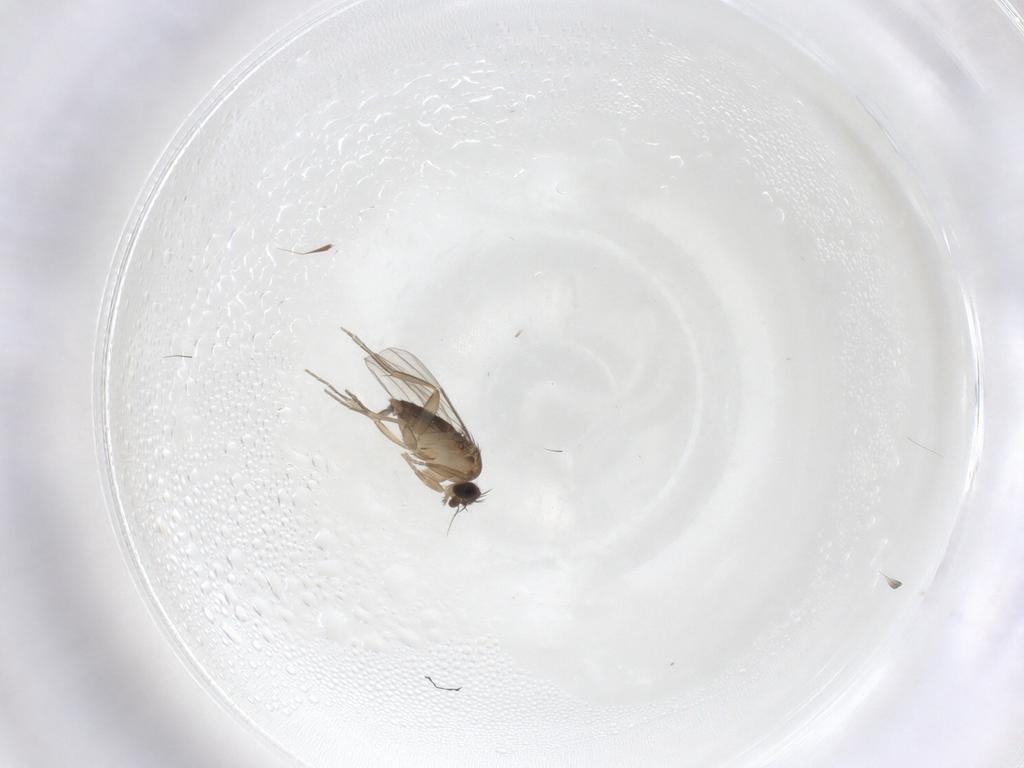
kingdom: Animalia
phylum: Arthropoda
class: Insecta
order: Diptera
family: Phoridae
